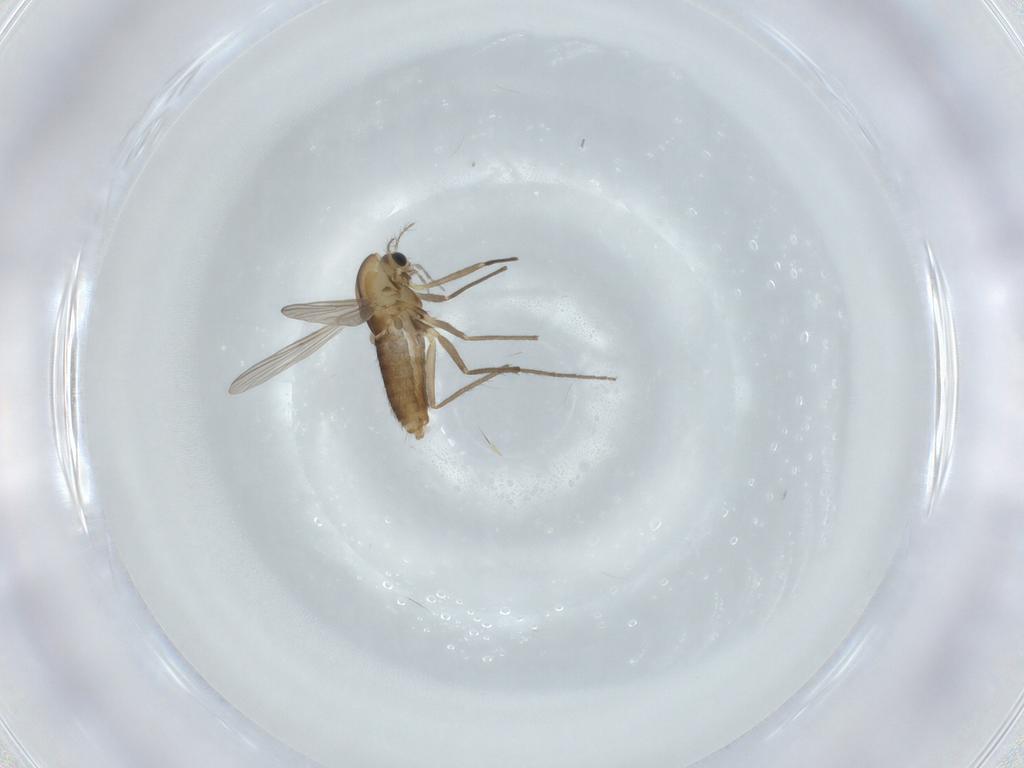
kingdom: Animalia
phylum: Arthropoda
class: Insecta
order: Diptera
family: Chironomidae
